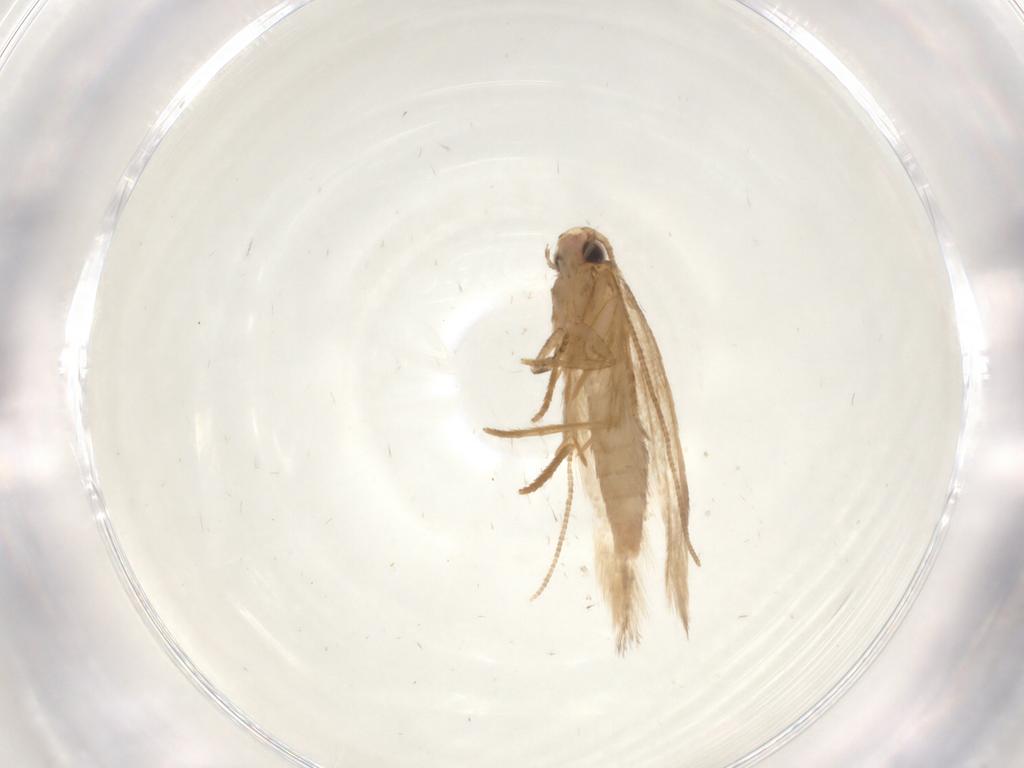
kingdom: Animalia
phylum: Arthropoda
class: Insecta
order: Lepidoptera
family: Tineidae
